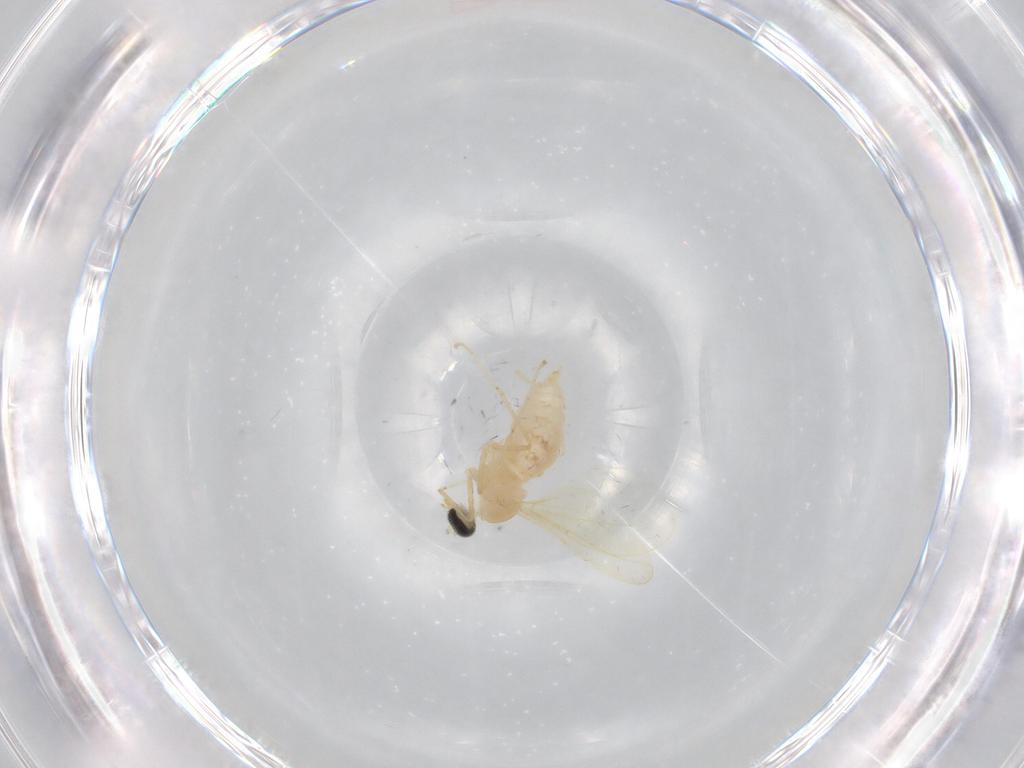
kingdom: Animalia
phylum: Arthropoda
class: Insecta
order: Diptera
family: Cecidomyiidae
